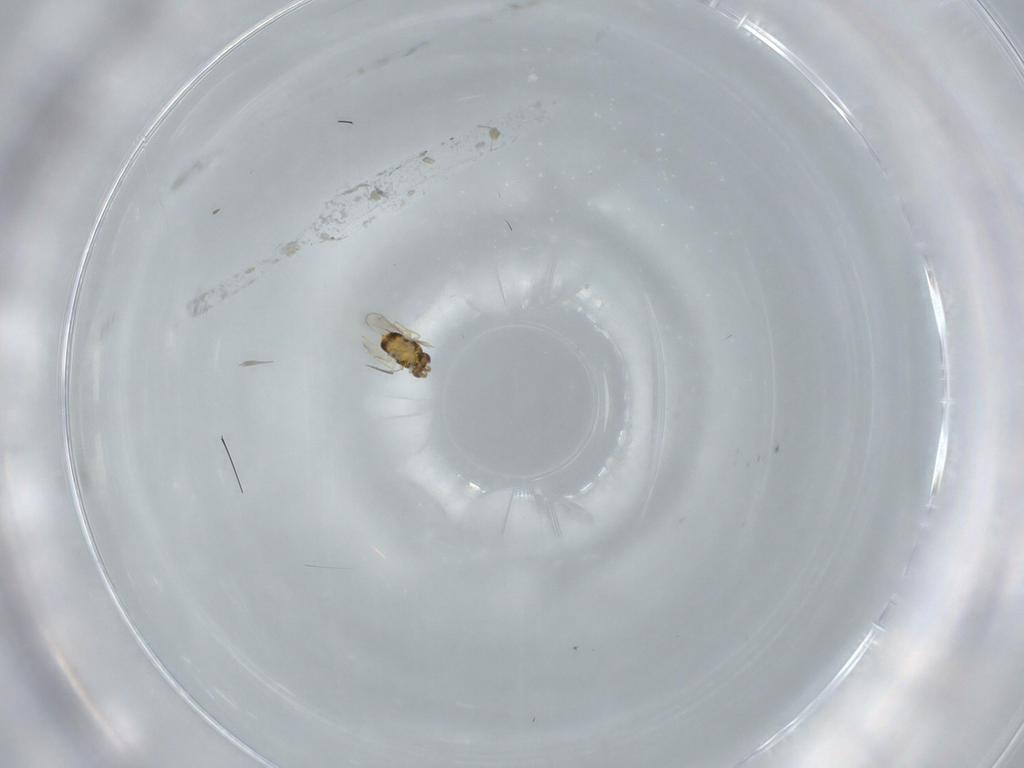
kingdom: Animalia
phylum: Arthropoda
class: Insecta
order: Hymenoptera
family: Aphelinidae
